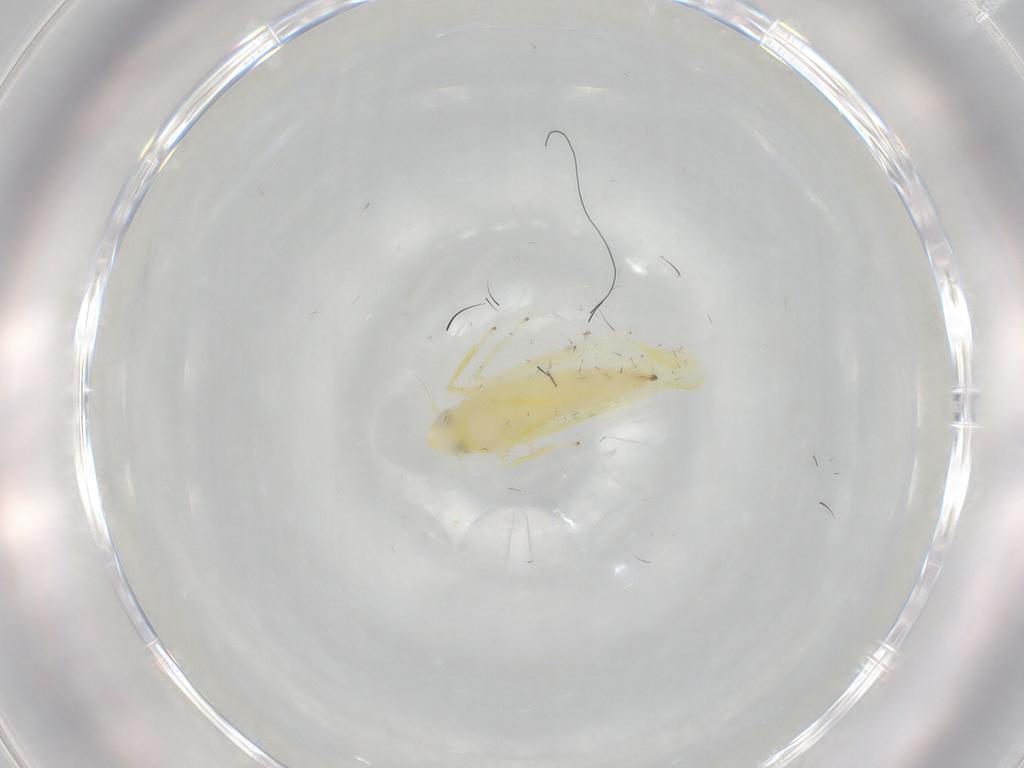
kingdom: Animalia
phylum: Arthropoda
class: Insecta
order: Hemiptera
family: Cicadellidae
